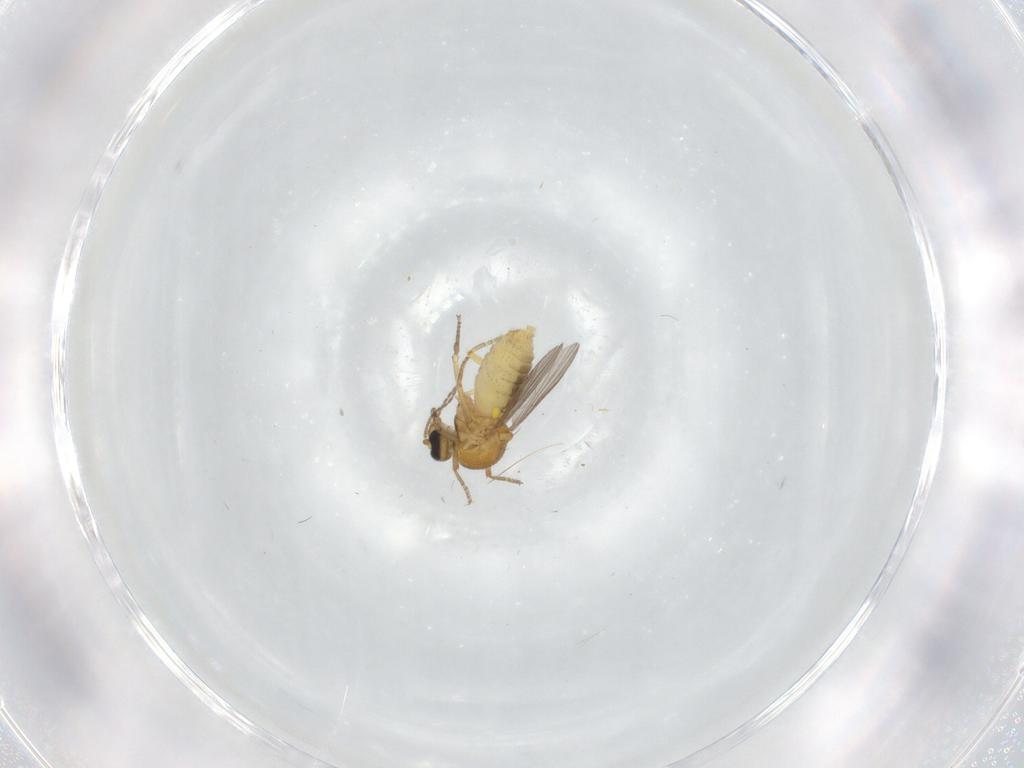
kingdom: Animalia
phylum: Arthropoda
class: Insecta
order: Diptera
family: Ceratopogonidae
